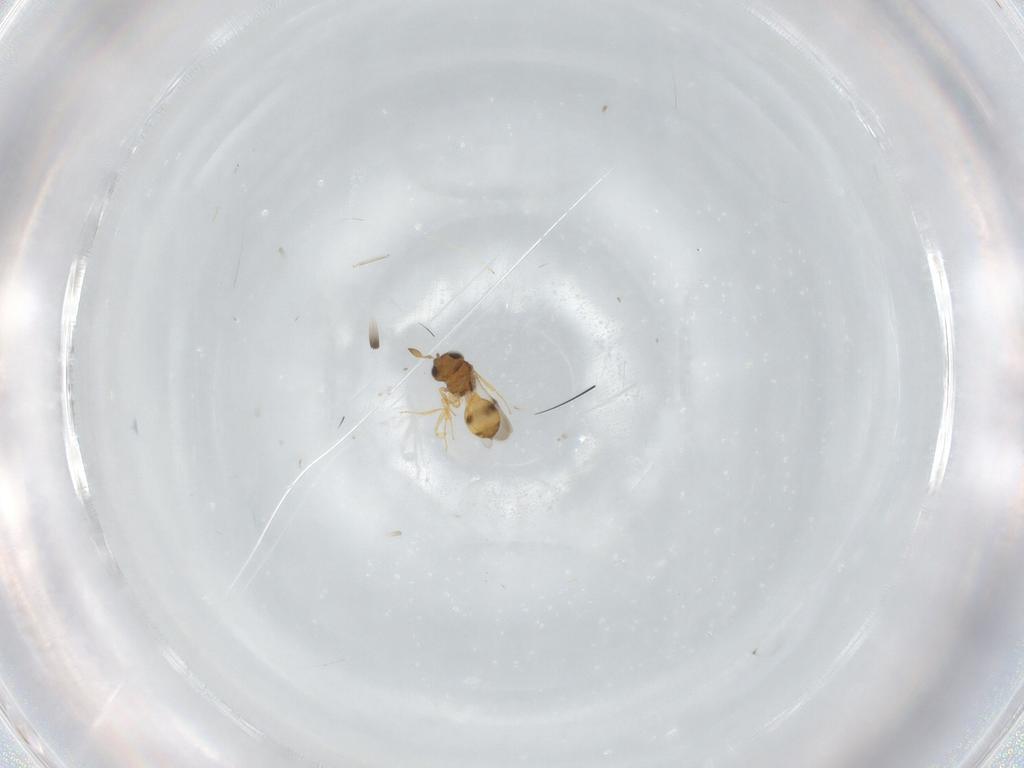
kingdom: Animalia
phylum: Arthropoda
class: Insecta
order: Hymenoptera
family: Scelionidae
